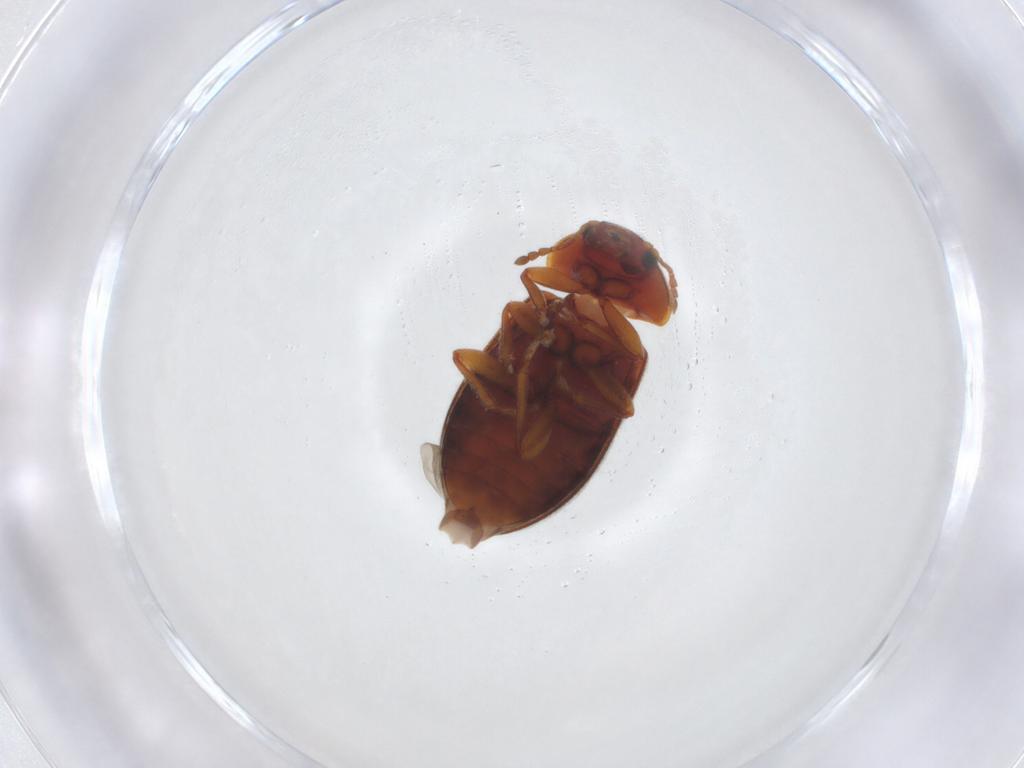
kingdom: Animalia
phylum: Arthropoda
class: Insecta
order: Coleoptera
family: Byturidae
